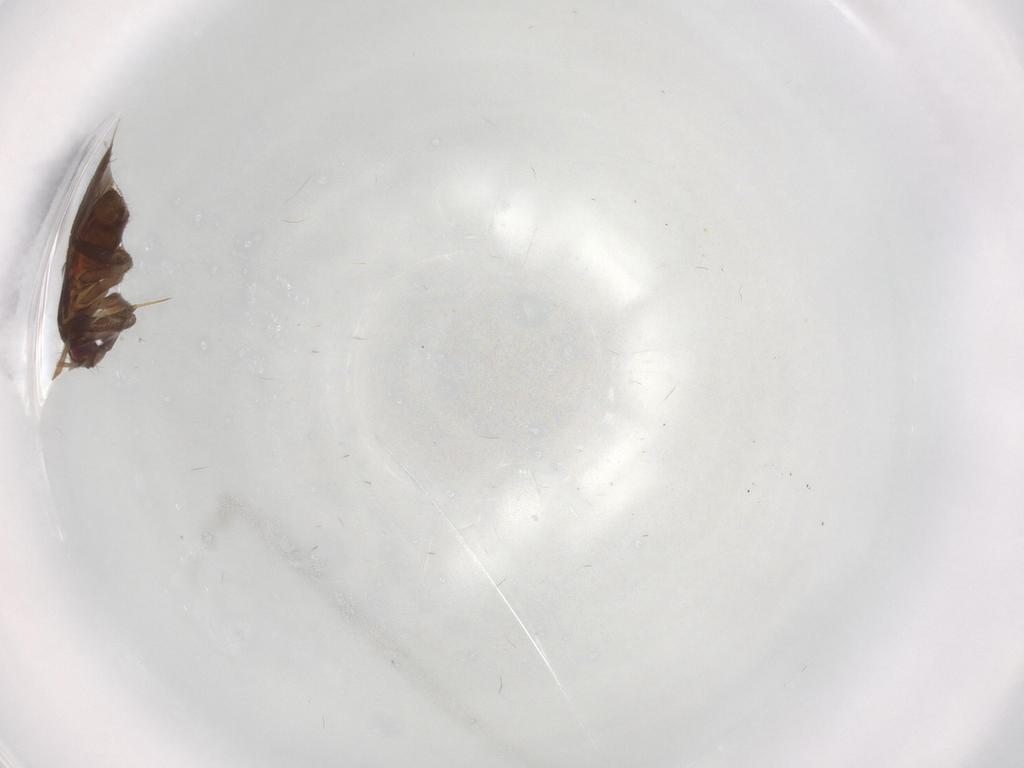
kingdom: Animalia
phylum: Arthropoda
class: Insecta
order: Hemiptera
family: Cicadellidae
